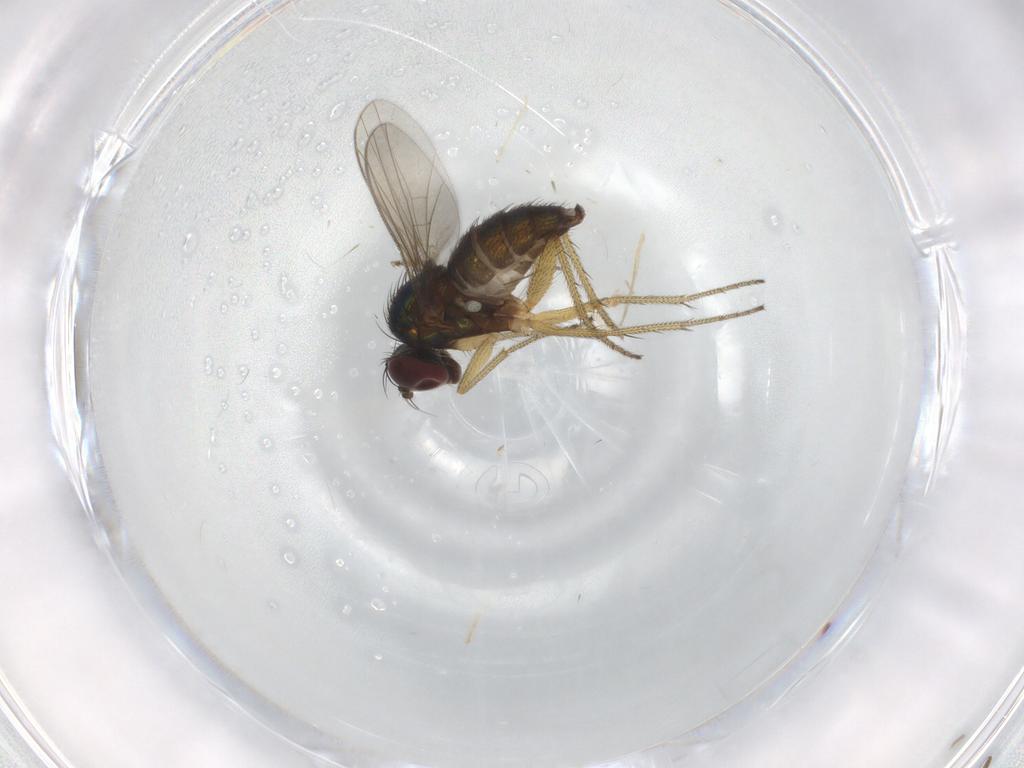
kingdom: Animalia
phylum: Arthropoda
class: Insecta
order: Diptera
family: Dolichopodidae
